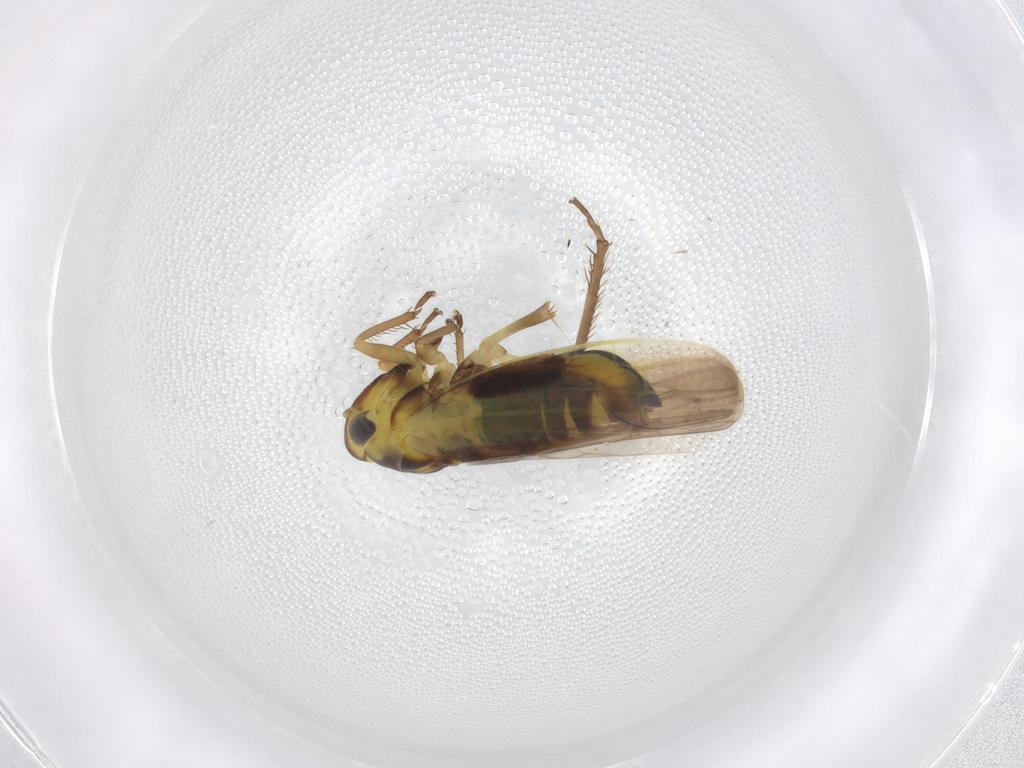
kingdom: Animalia
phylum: Arthropoda
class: Insecta
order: Hemiptera
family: Cicadellidae
